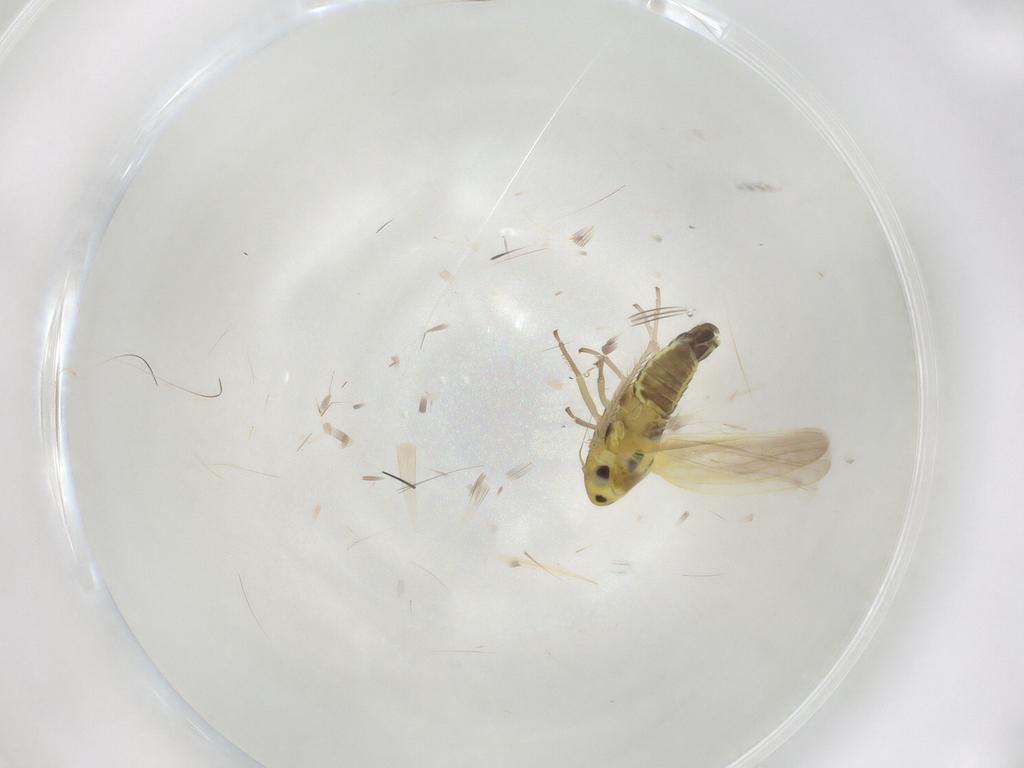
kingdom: Animalia
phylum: Arthropoda
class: Insecta
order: Hemiptera
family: Cicadellidae
